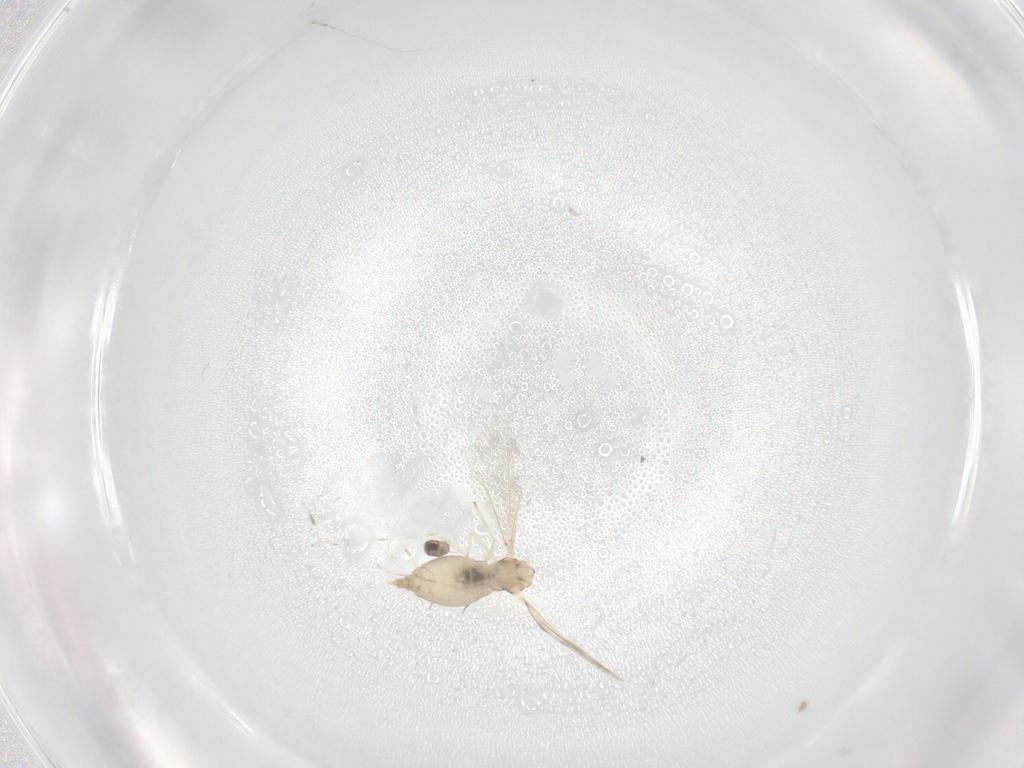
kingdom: Animalia
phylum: Arthropoda
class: Insecta
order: Diptera
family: Cecidomyiidae
